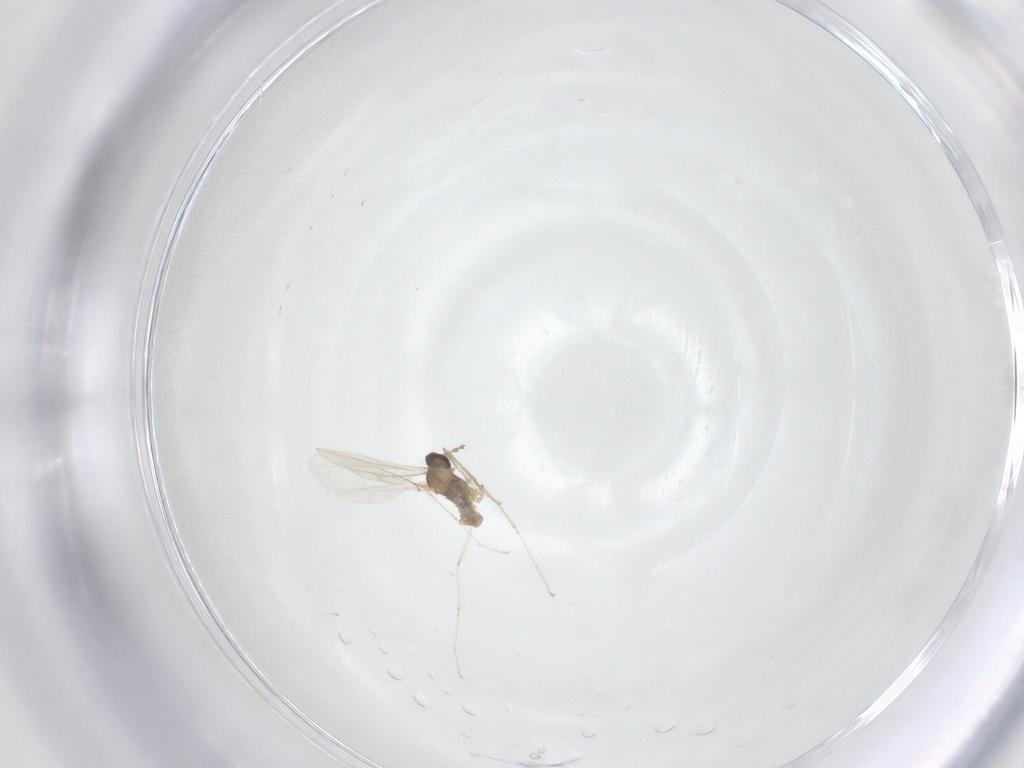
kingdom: Animalia
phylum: Arthropoda
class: Insecta
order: Diptera
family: Cecidomyiidae
